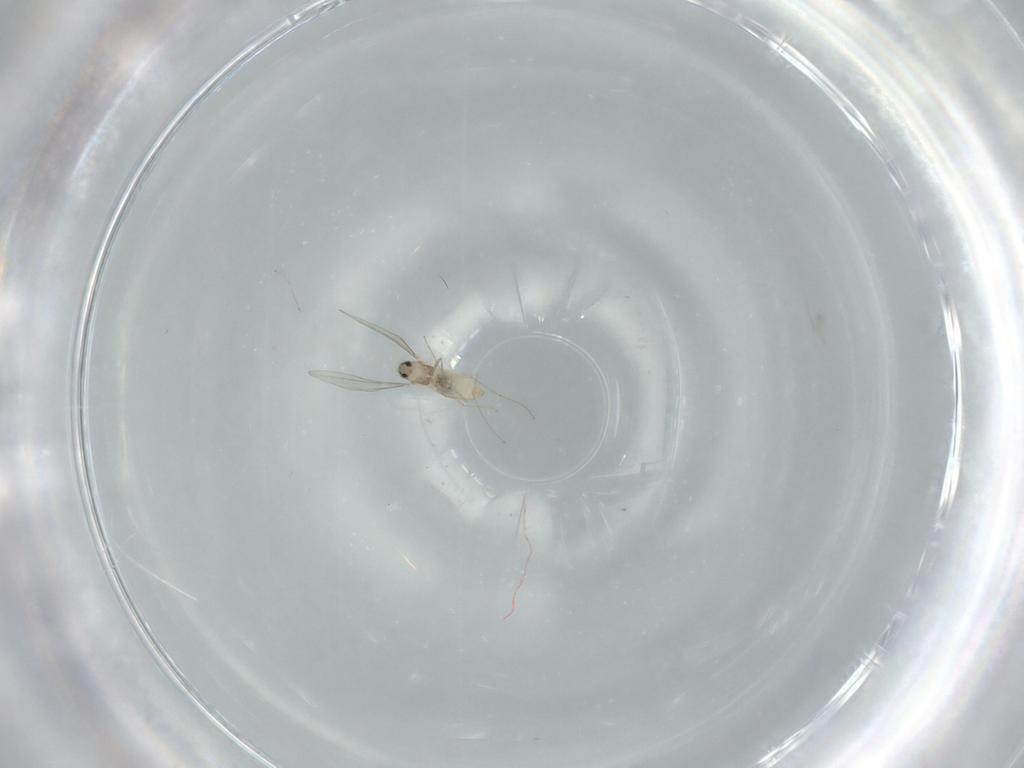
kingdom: Animalia
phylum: Arthropoda
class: Insecta
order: Diptera
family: Cecidomyiidae
